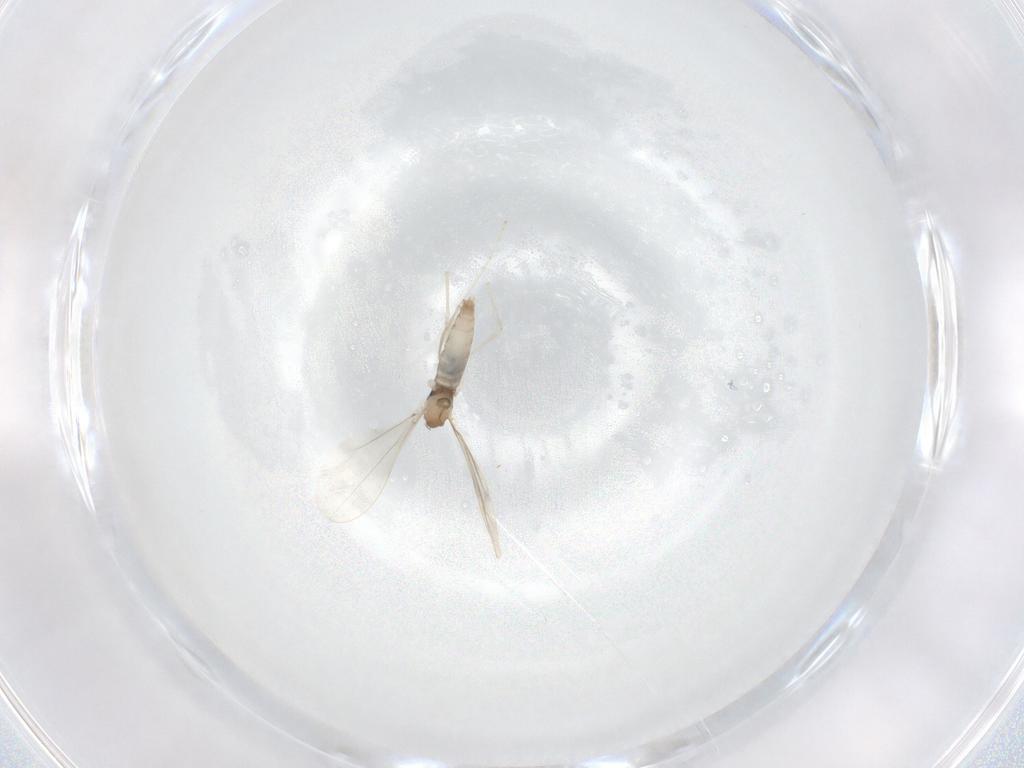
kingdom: Animalia
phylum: Arthropoda
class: Insecta
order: Diptera
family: Cecidomyiidae
